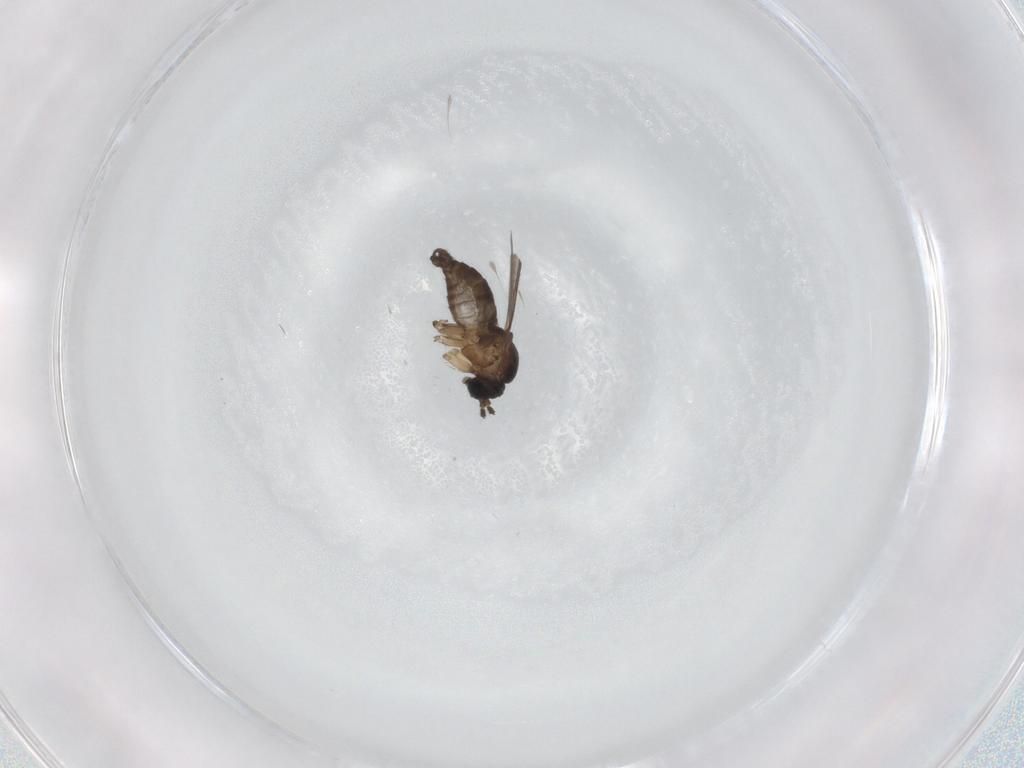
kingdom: Animalia
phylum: Arthropoda
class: Insecta
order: Diptera
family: Sciaridae
